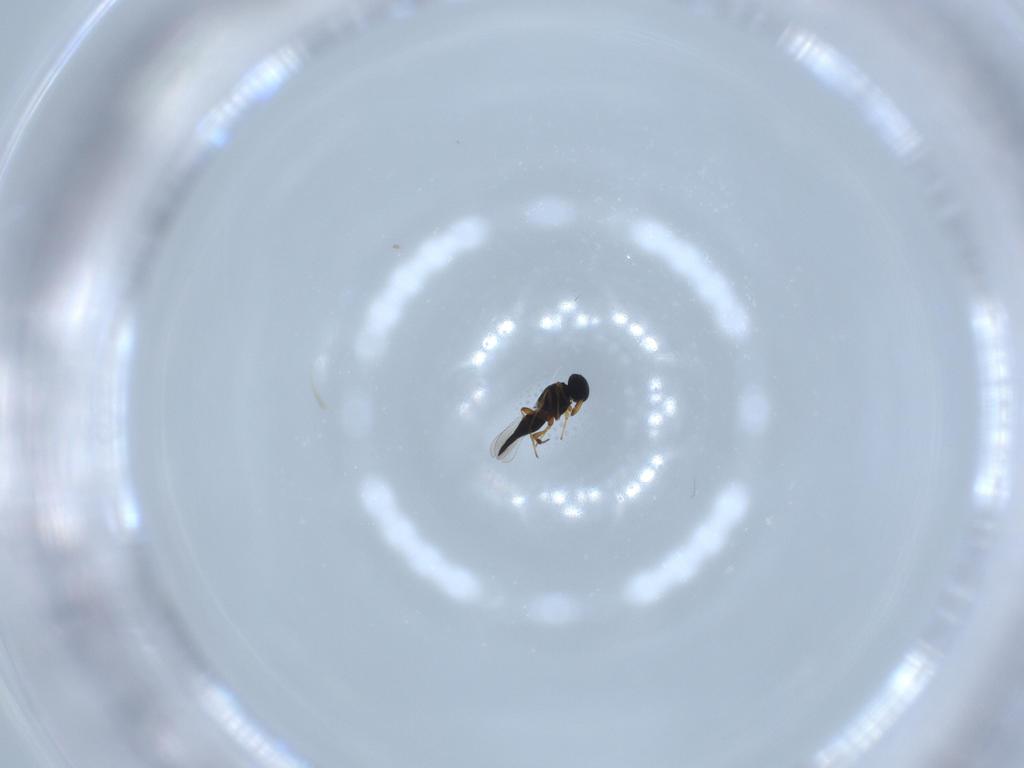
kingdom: Animalia
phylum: Arthropoda
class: Insecta
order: Hymenoptera
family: Platygastridae
